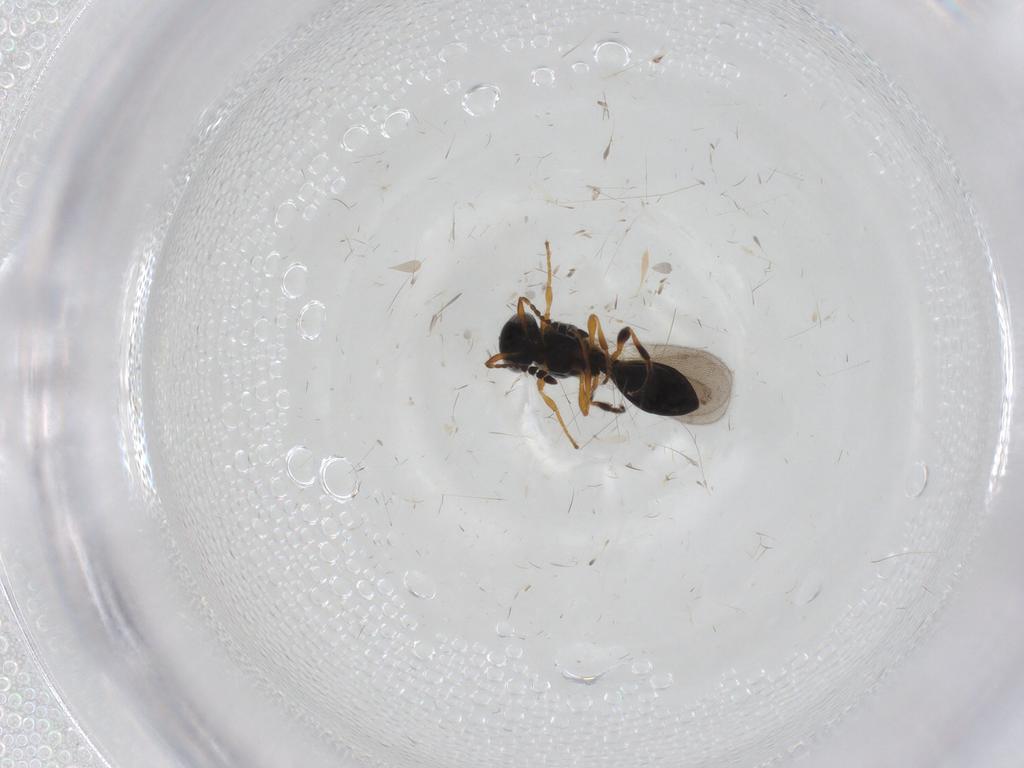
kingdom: Animalia
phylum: Arthropoda
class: Insecta
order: Hymenoptera
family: Platygastridae
